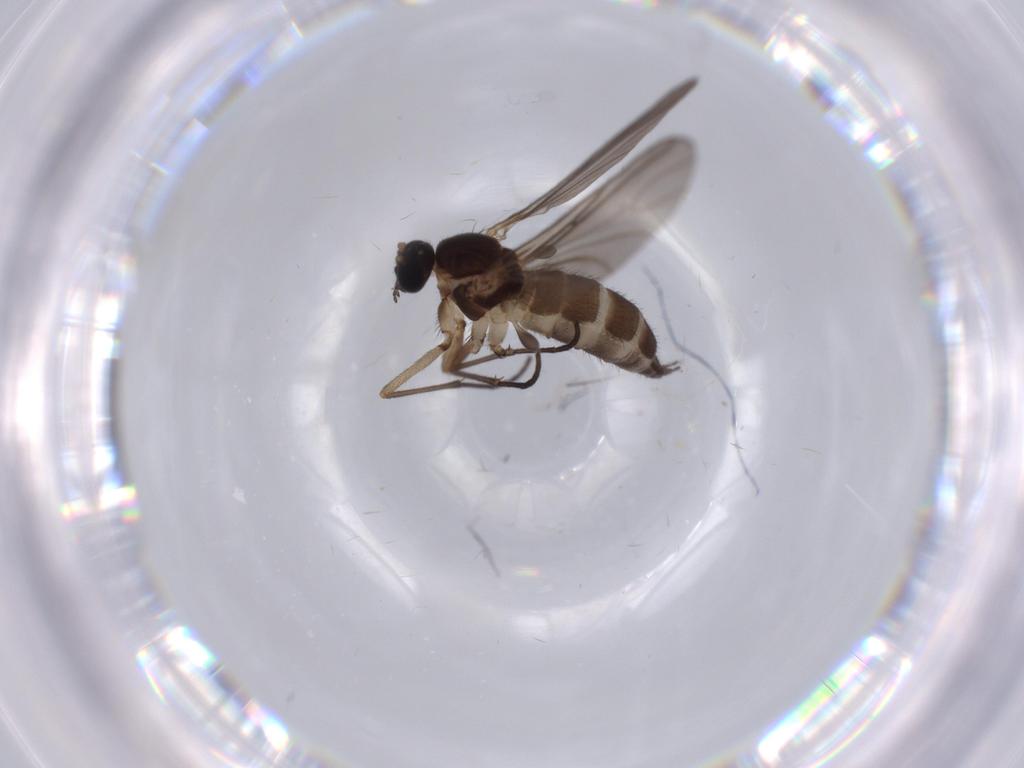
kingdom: Animalia
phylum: Arthropoda
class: Insecta
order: Diptera
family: Sciaridae
